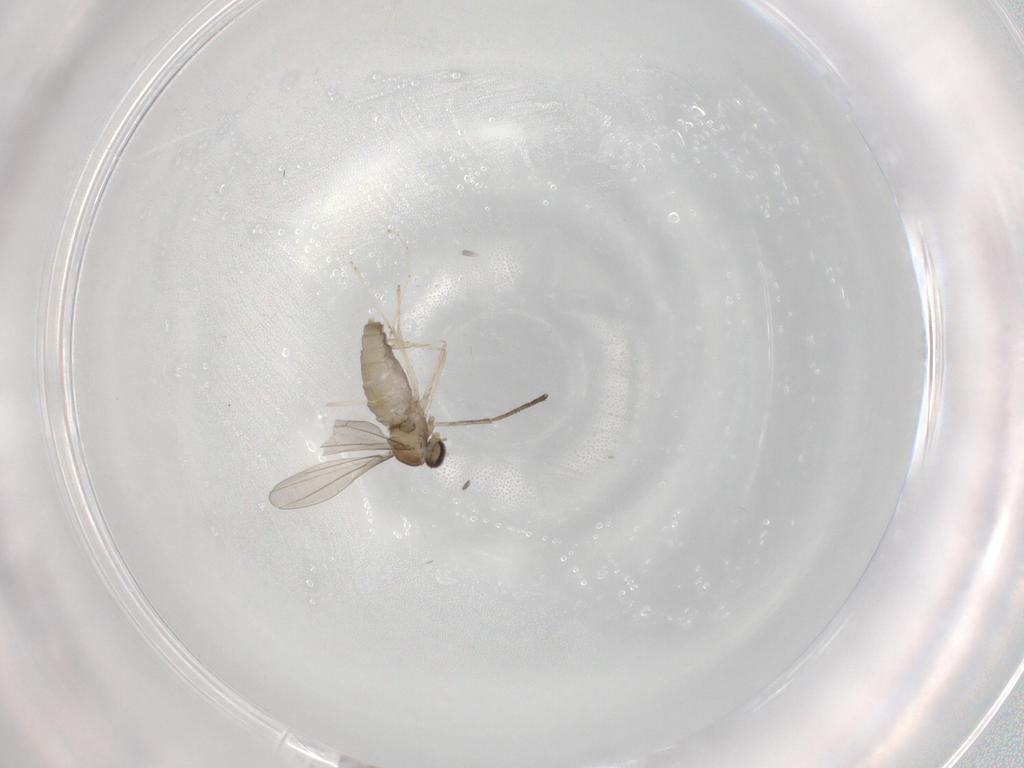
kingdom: Animalia
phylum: Arthropoda
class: Insecta
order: Diptera
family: Cecidomyiidae
